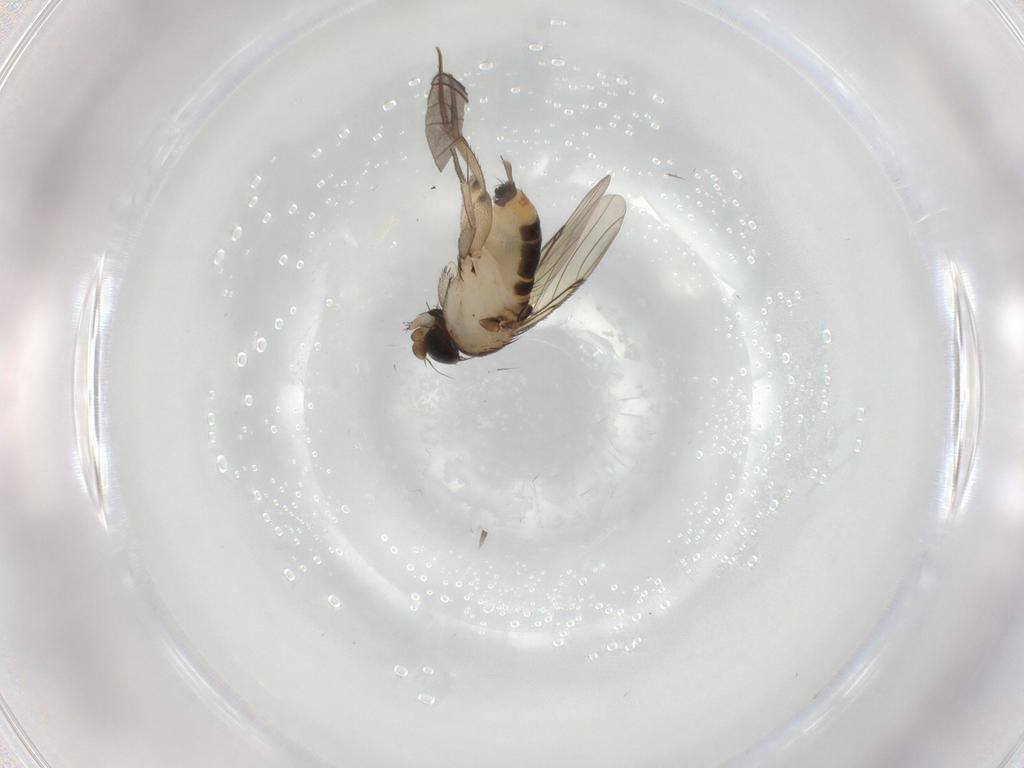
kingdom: Animalia
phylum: Arthropoda
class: Insecta
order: Diptera
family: Phoridae
